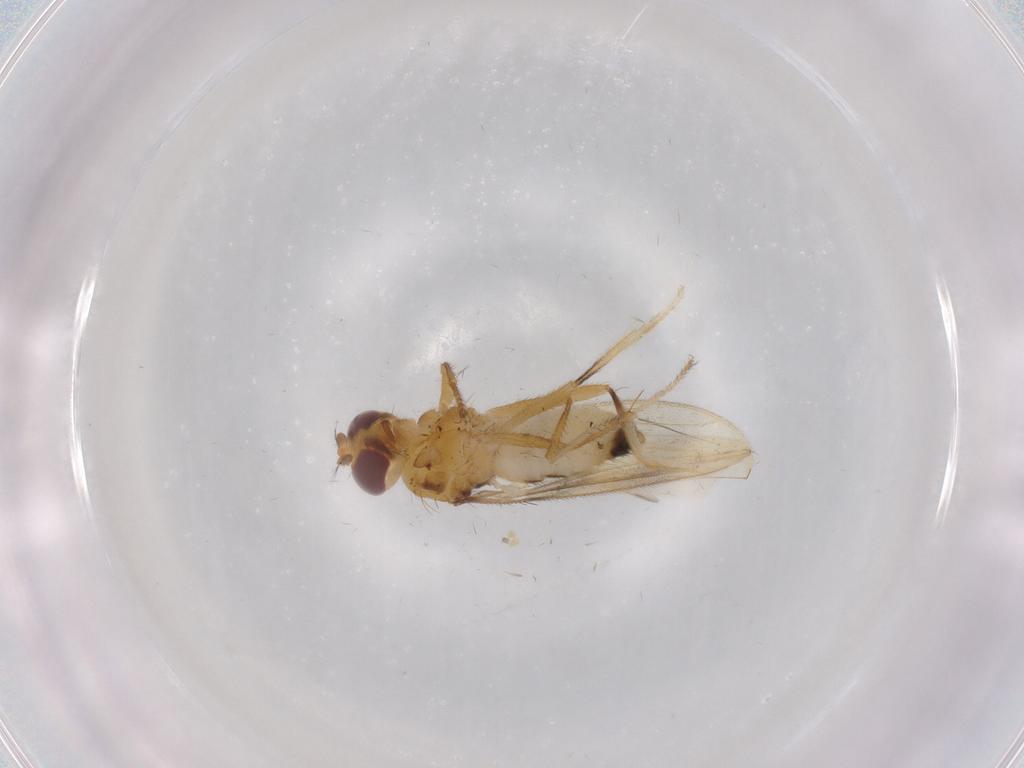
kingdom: Animalia
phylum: Arthropoda
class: Insecta
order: Diptera
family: Periscelididae
